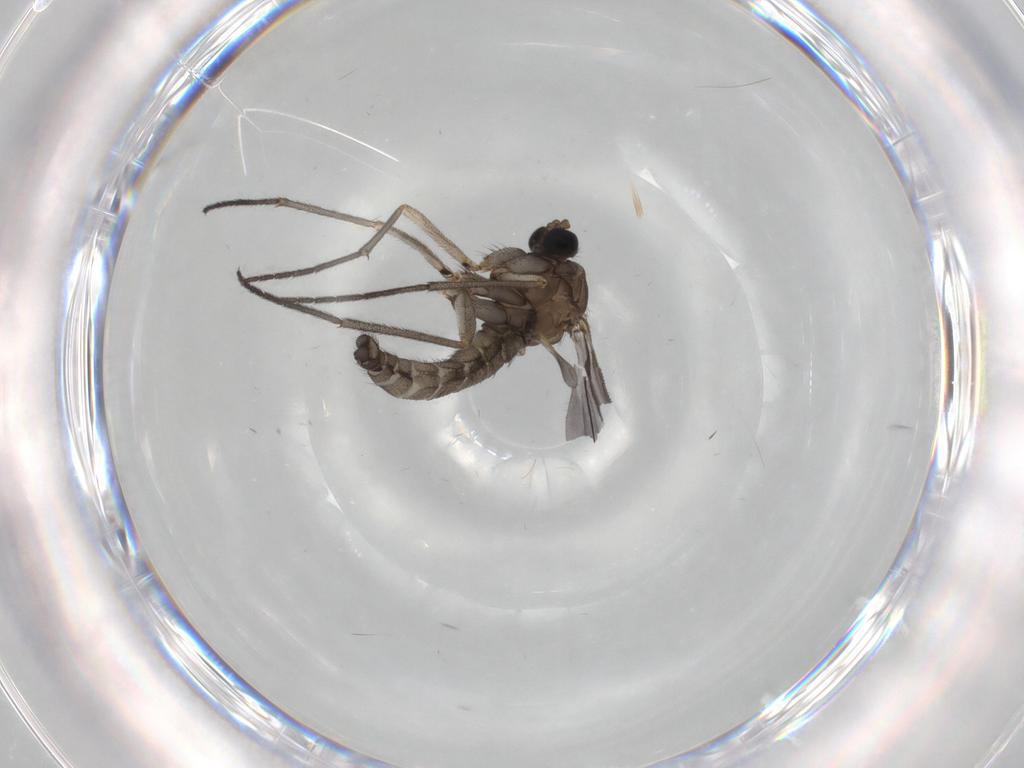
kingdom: Animalia
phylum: Arthropoda
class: Insecta
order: Diptera
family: Sciaridae
